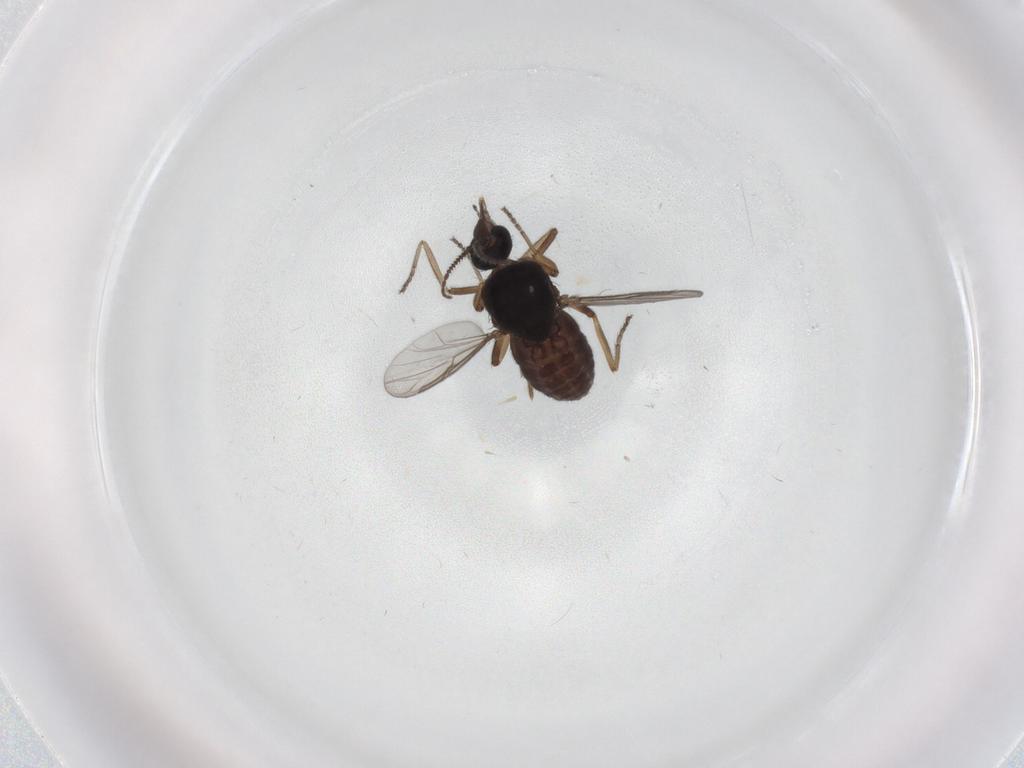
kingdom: Animalia
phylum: Arthropoda
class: Insecta
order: Diptera
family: Ceratopogonidae
